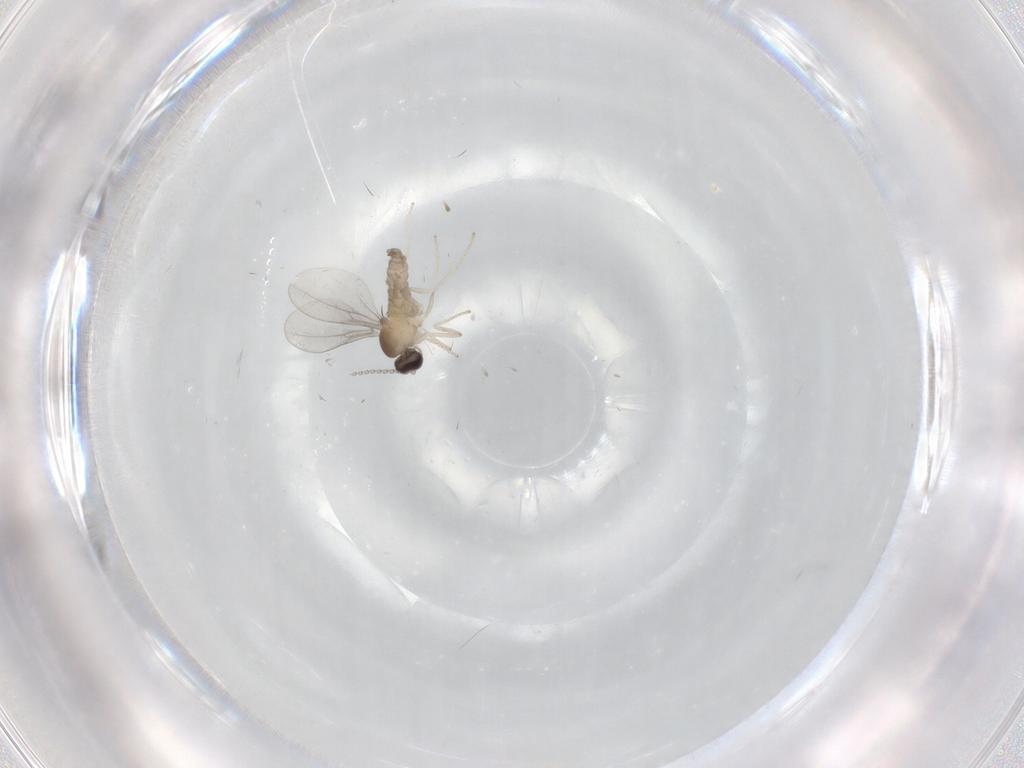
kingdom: Animalia
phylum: Arthropoda
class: Insecta
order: Diptera
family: Cecidomyiidae
